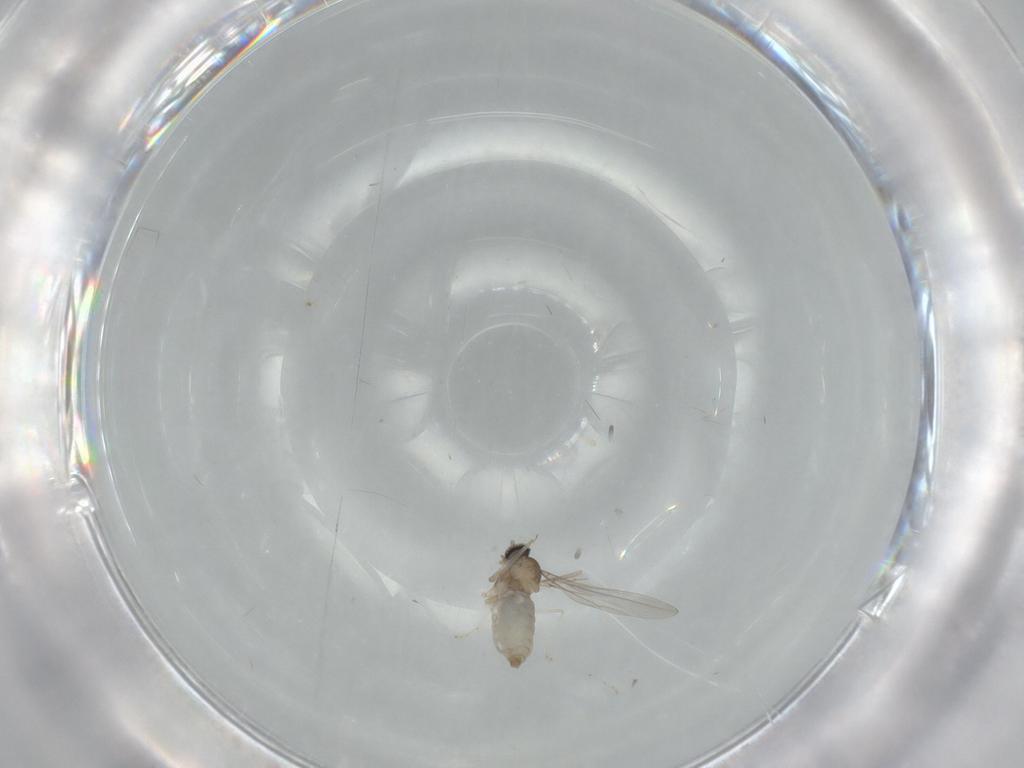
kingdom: Animalia
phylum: Arthropoda
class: Insecta
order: Diptera
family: Cecidomyiidae
